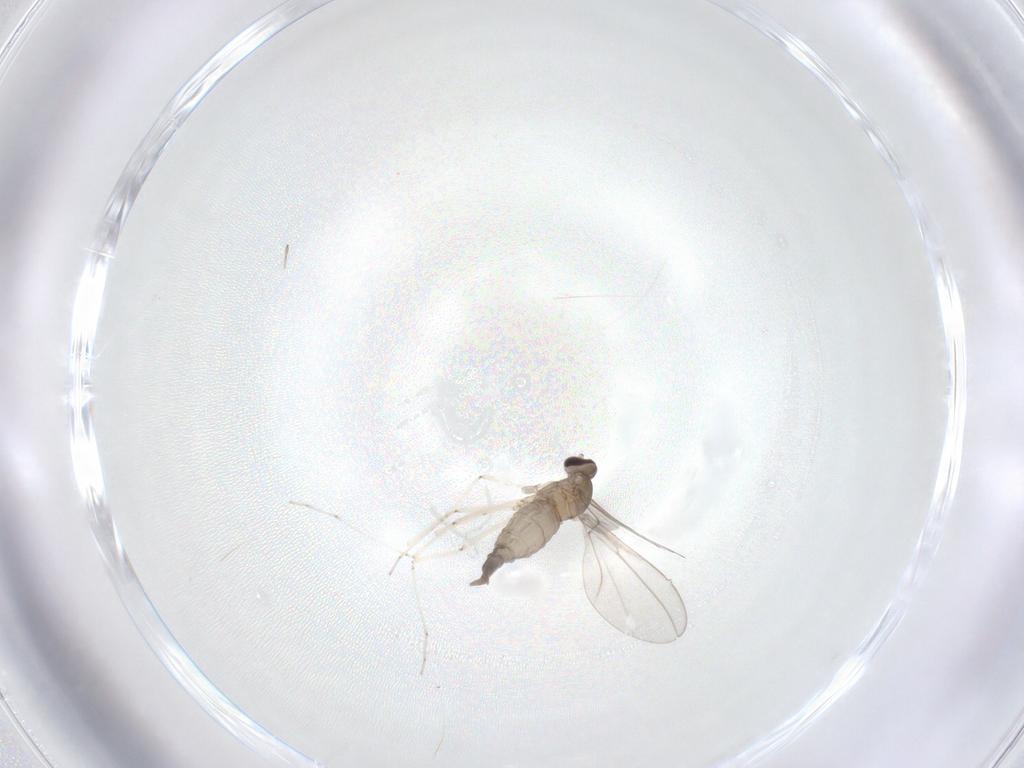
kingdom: Animalia
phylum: Arthropoda
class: Insecta
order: Diptera
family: Cecidomyiidae
